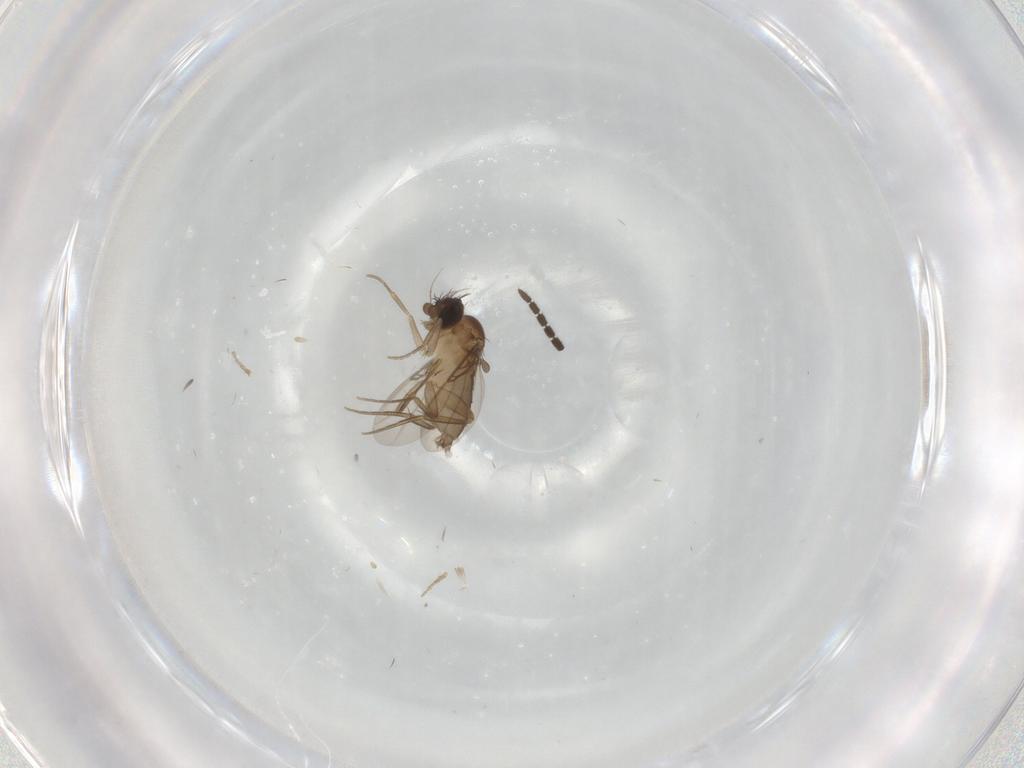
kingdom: Animalia
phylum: Arthropoda
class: Insecta
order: Diptera
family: Phoridae
